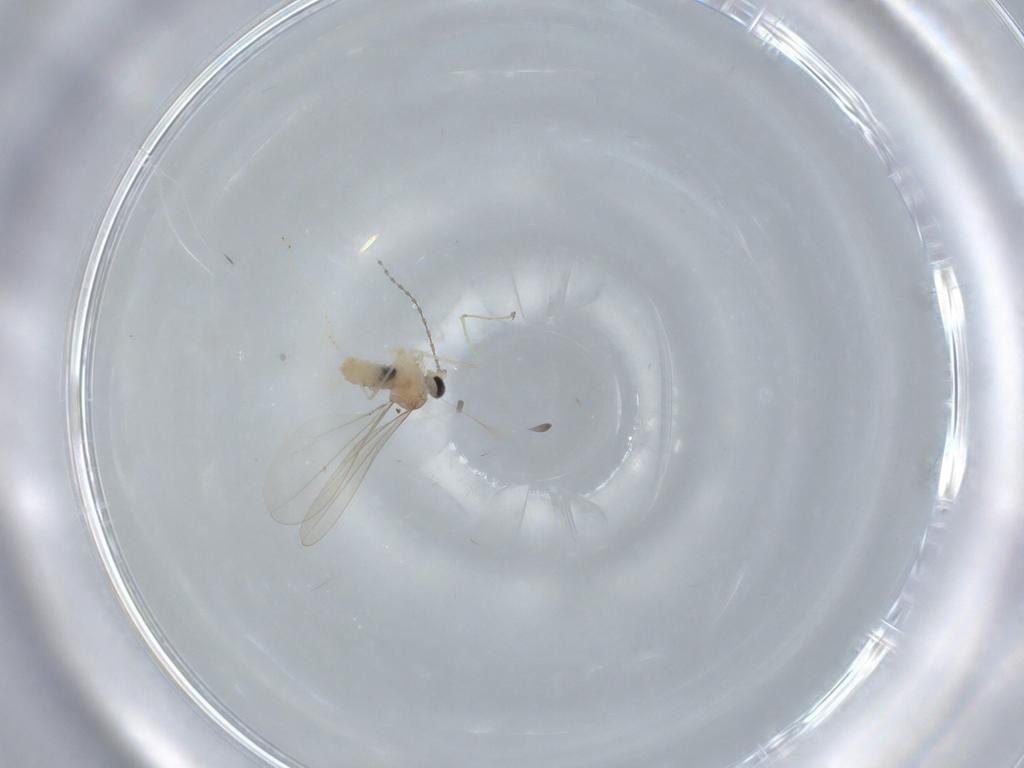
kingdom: Animalia
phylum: Arthropoda
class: Insecta
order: Diptera
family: Cecidomyiidae
